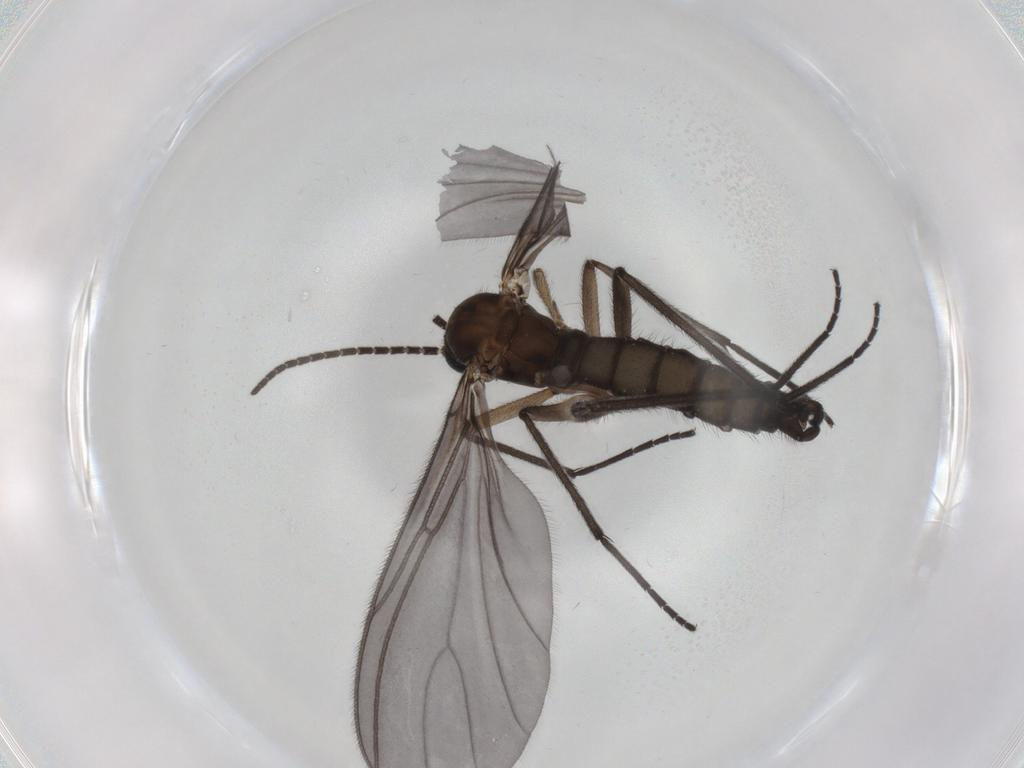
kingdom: Animalia
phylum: Arthropoda
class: Insecta
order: Diptera
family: Sciaridae
